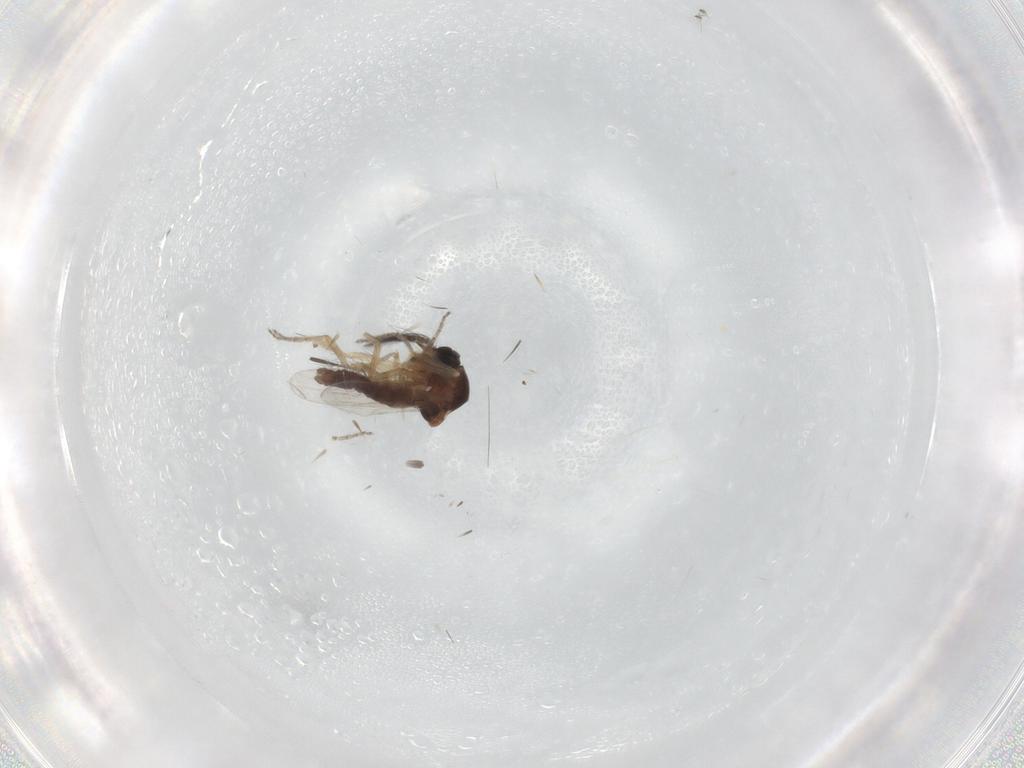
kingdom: Animalia
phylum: Arthropoda
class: Insecta
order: Diptera
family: Ceratopogonidae
